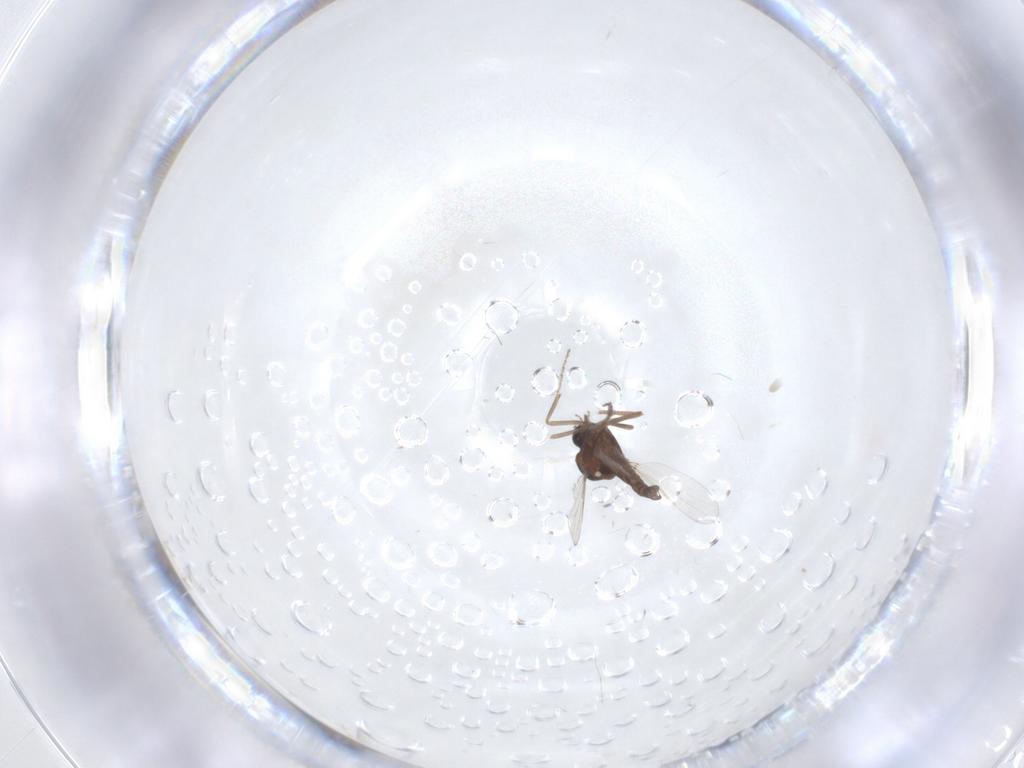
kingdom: Animalia
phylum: Arthropoda
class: Insecta
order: Diptera
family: Ceratopogonidae
